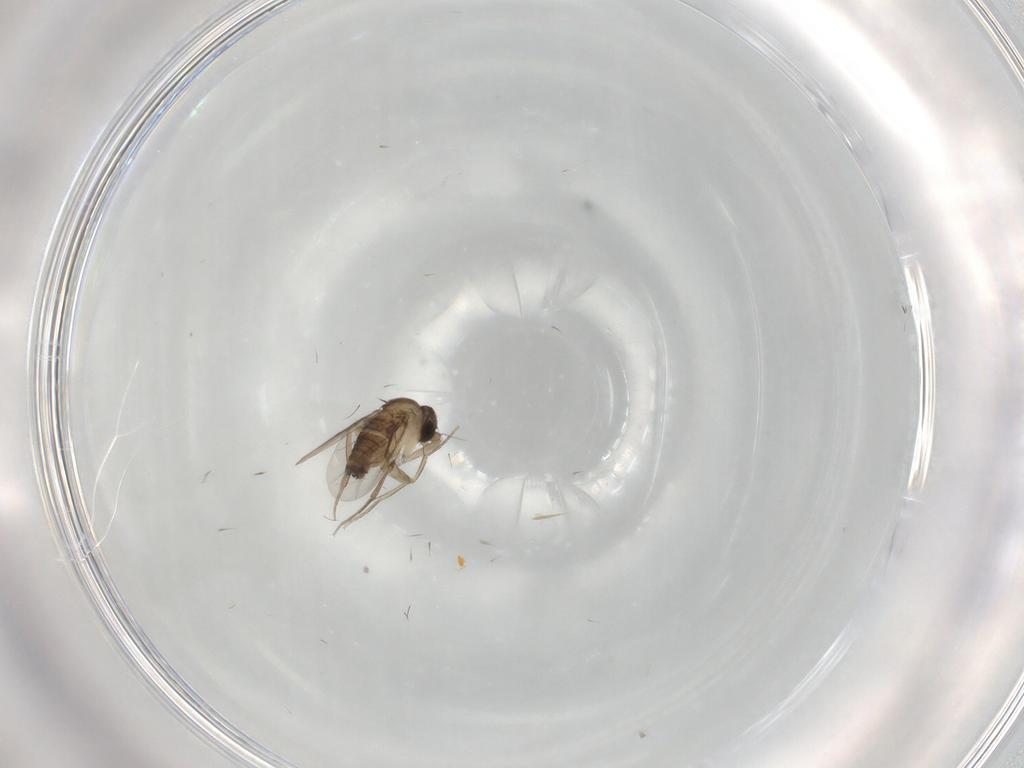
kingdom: Animalia
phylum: Arthropoda
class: Insecta
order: Diptera
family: Phoridae
